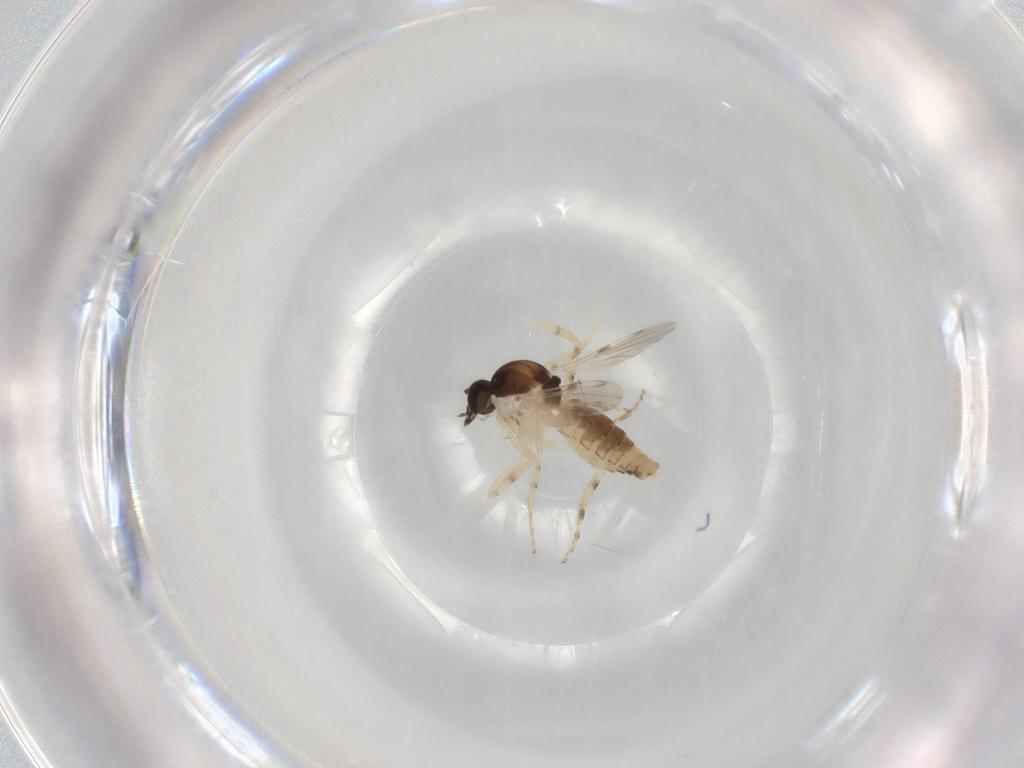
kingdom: Animalia
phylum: Arthropoda
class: Insecta
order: Diptera
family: Ceratopogonidae
